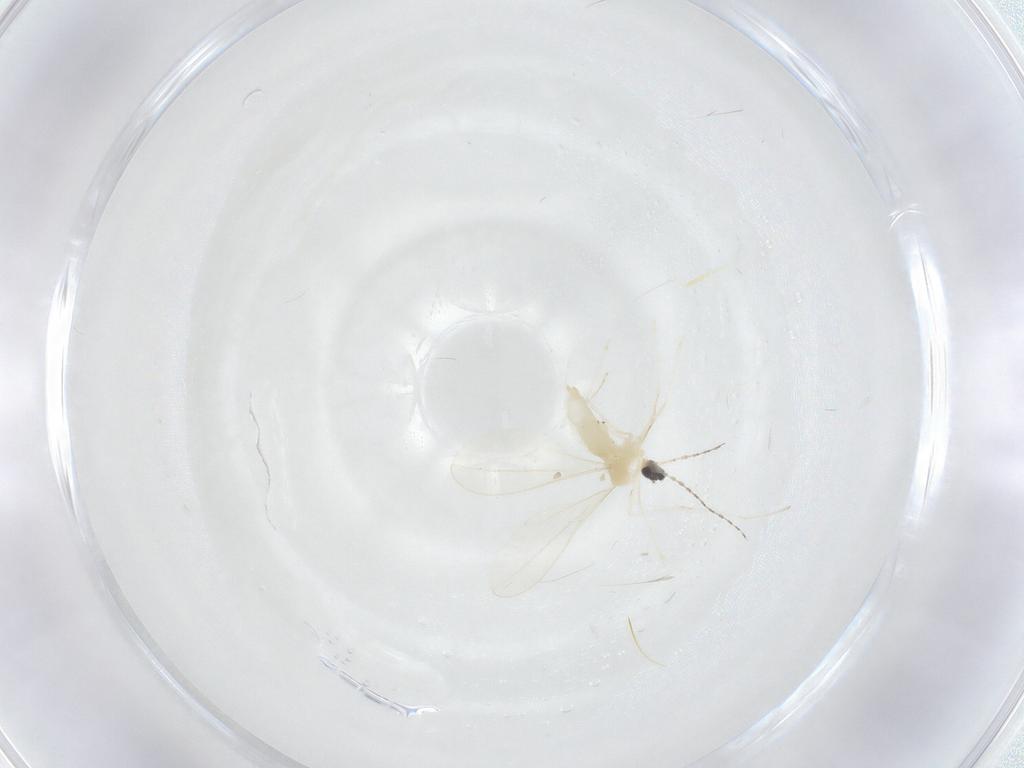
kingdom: Animalia
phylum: Arthropoda
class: Insecta
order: Diptera
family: Cecidomyiidae
